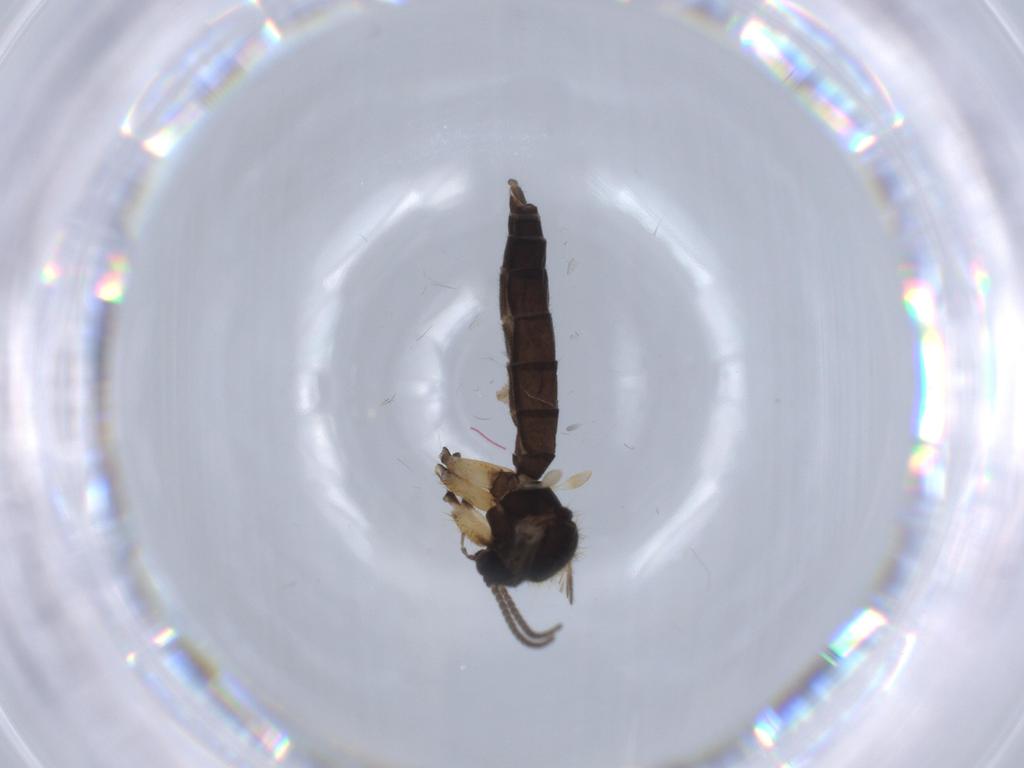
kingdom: Animalia
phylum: Arthropoda
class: Insecta
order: Diptera
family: Mycetophilidae
